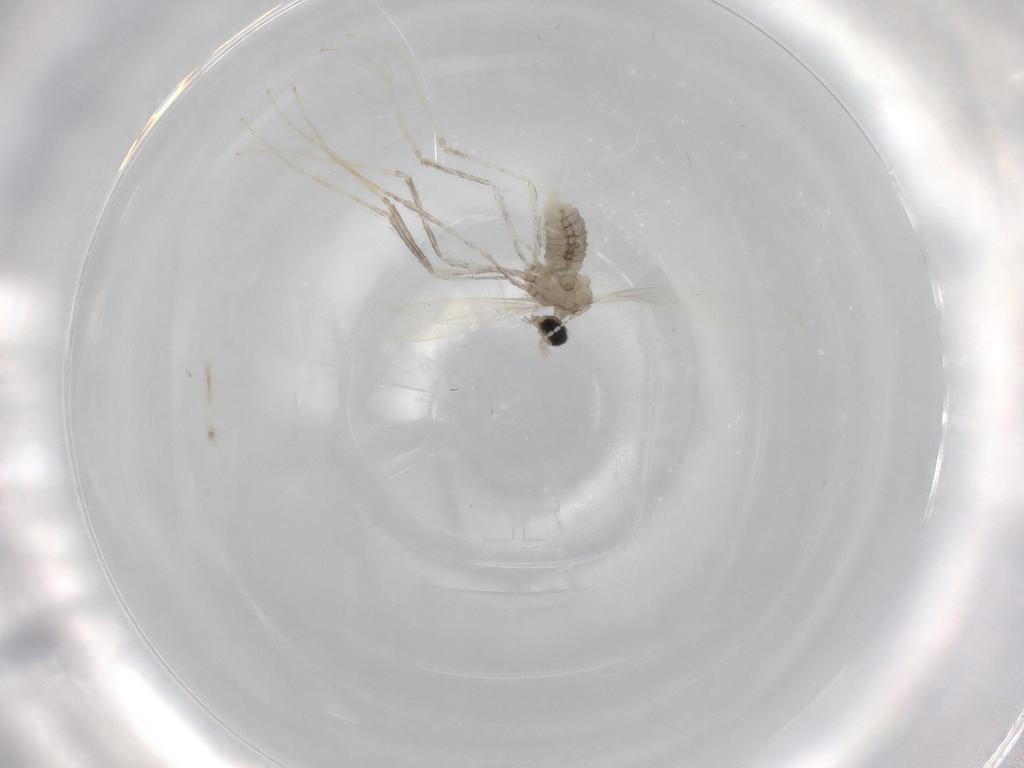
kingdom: Animalia
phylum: Arthropoda
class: Insecta
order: Diptera
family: Cecidomyiidae
